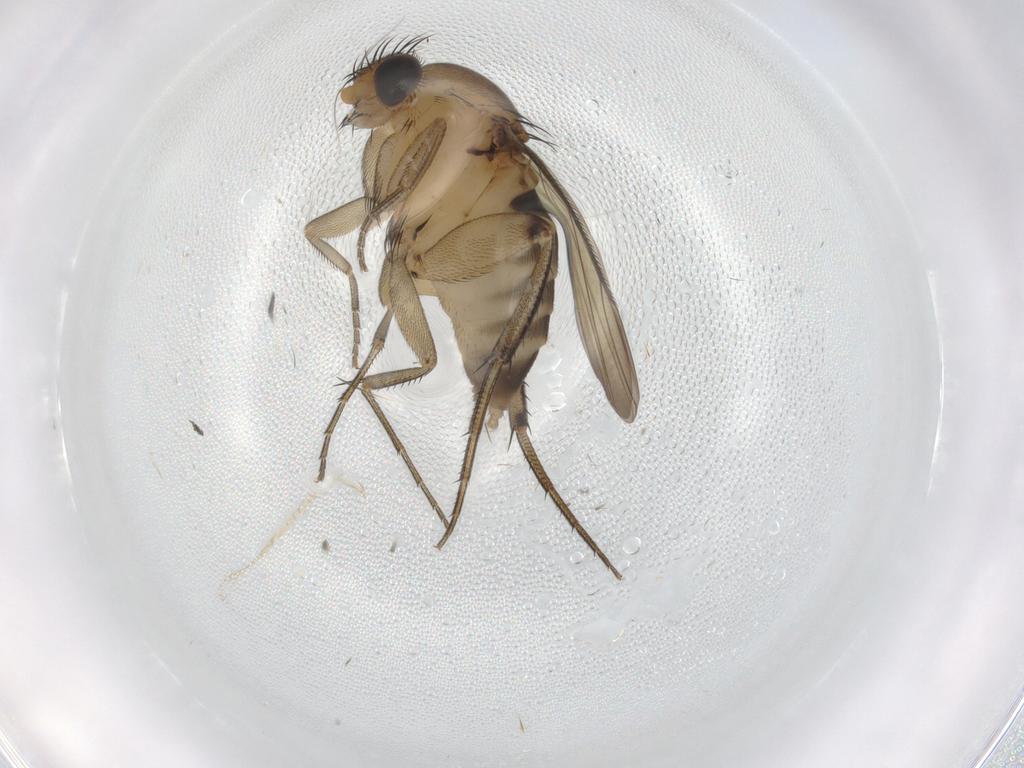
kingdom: Animalia
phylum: Arthropoda
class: Insecta
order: Diptera
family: Phoridae
